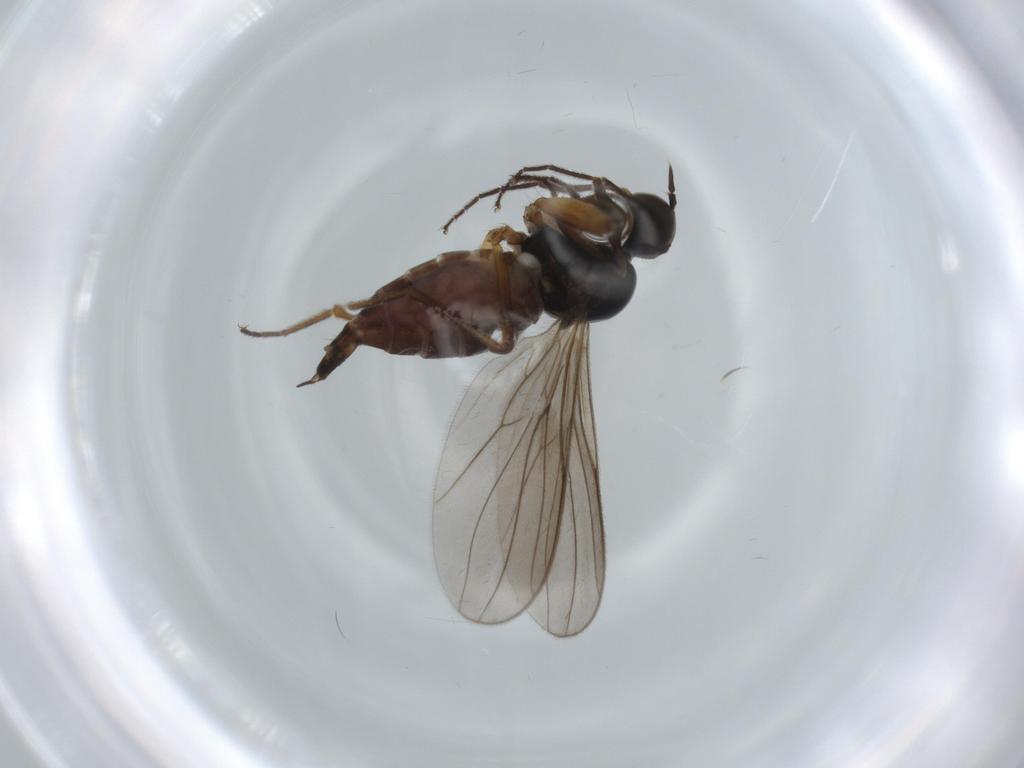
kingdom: Animalia
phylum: Arthropoda
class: Insecta
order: Diptera
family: Hybotidae
